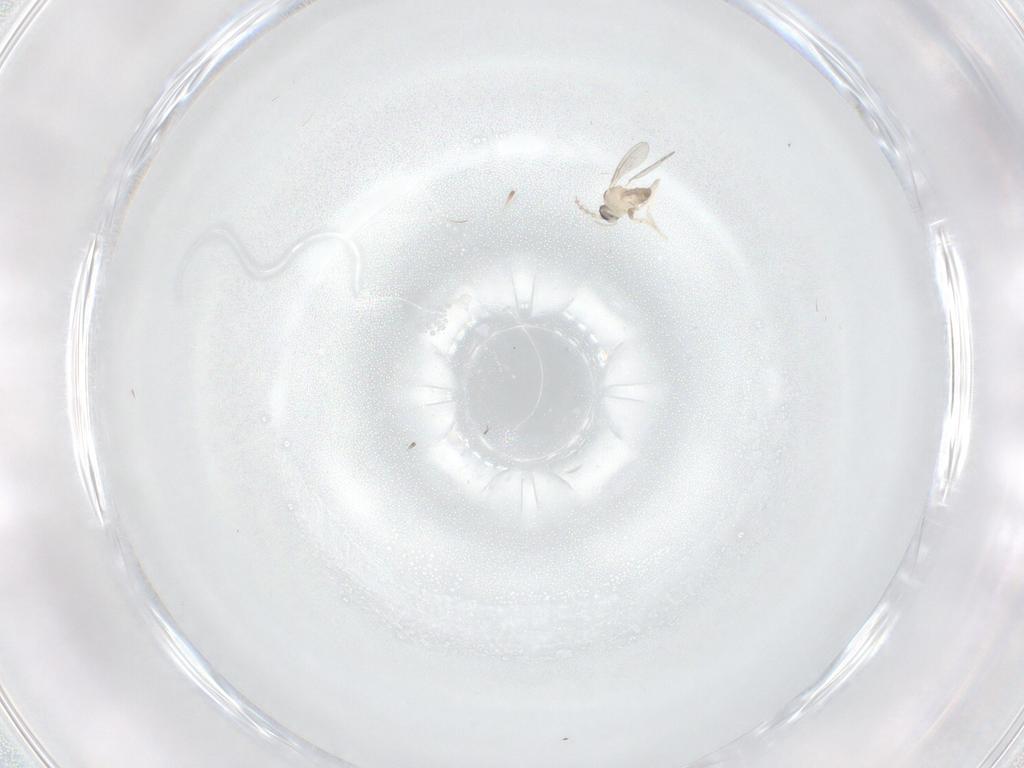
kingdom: Animalia
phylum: Arthropoda
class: Insecta
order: Diptera
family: Cecidomyiidae
